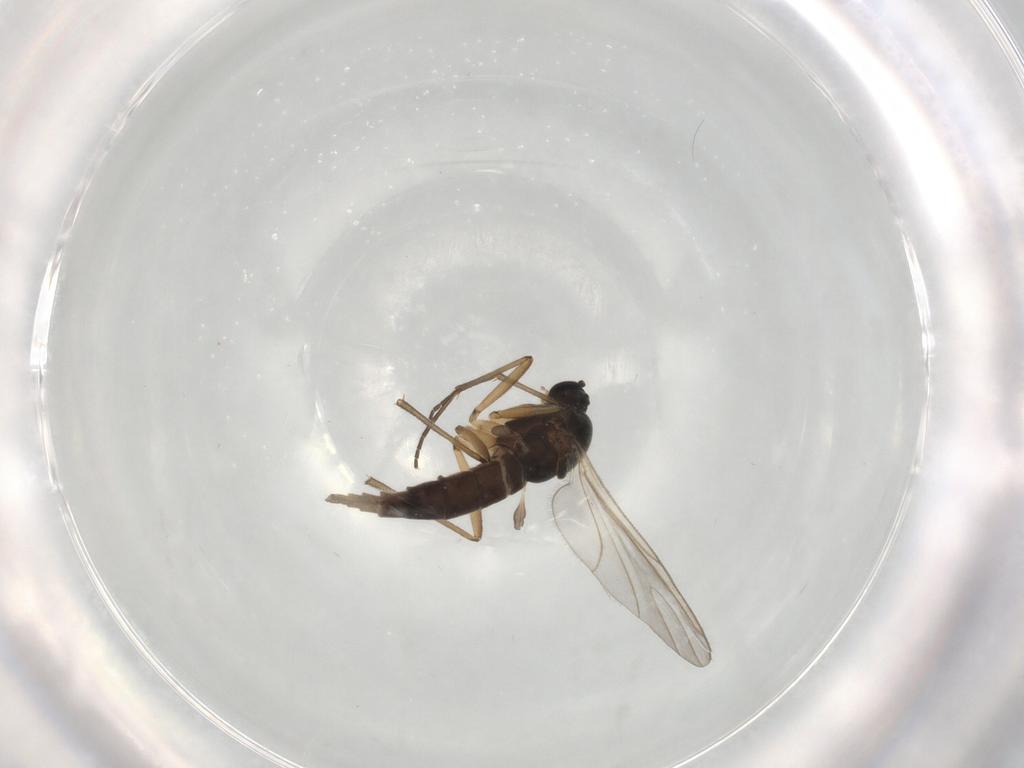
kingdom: Animalia
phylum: Arthropoda
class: Insecta
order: Diptera
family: Sciaridae
